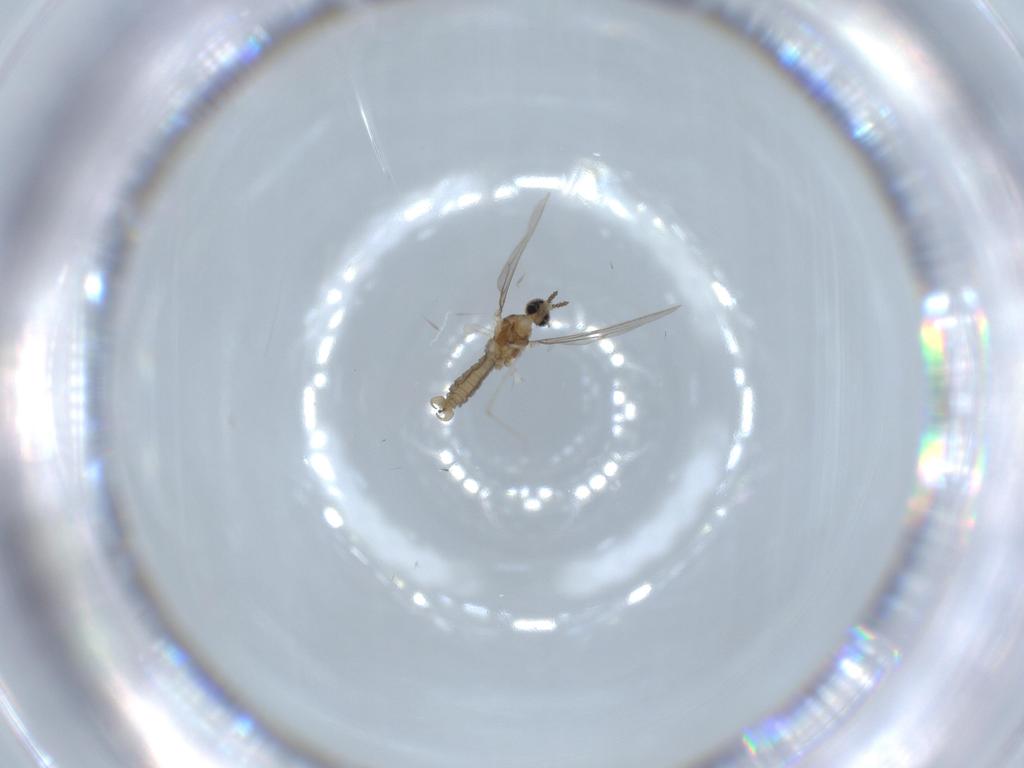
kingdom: Animalia
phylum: Arthropoda
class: Insecta
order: Diptera
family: Cecidomyiidae
